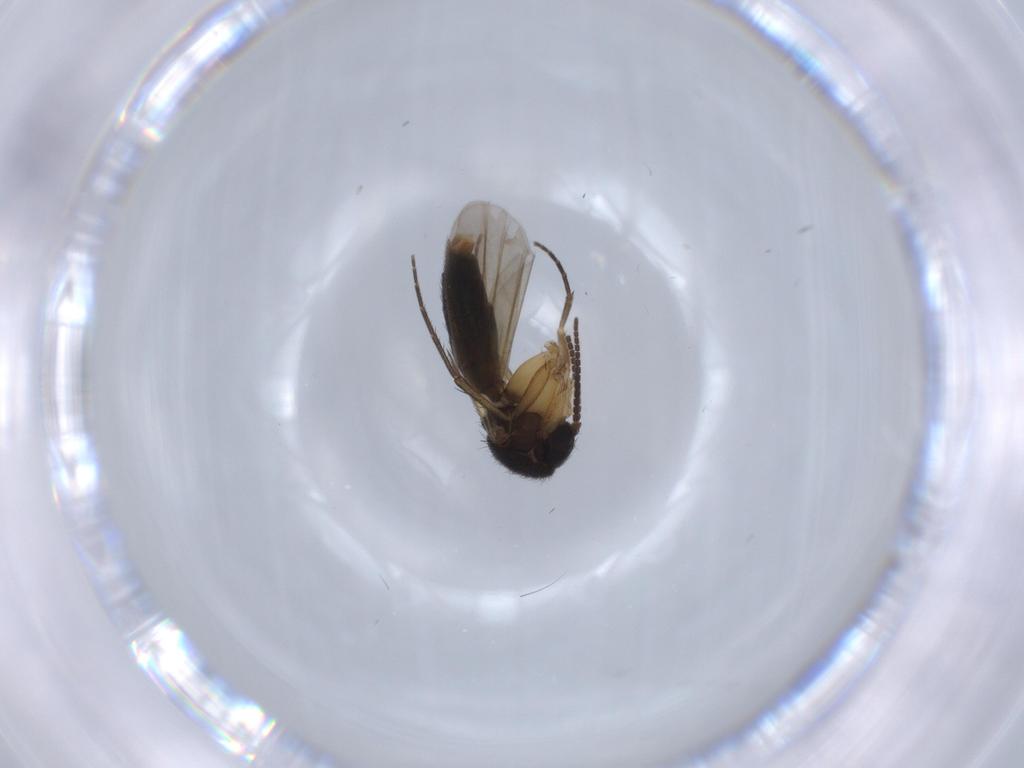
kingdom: Animalia
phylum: Arthropoda
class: Insecta
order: Diptera
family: Mycetophilidae
